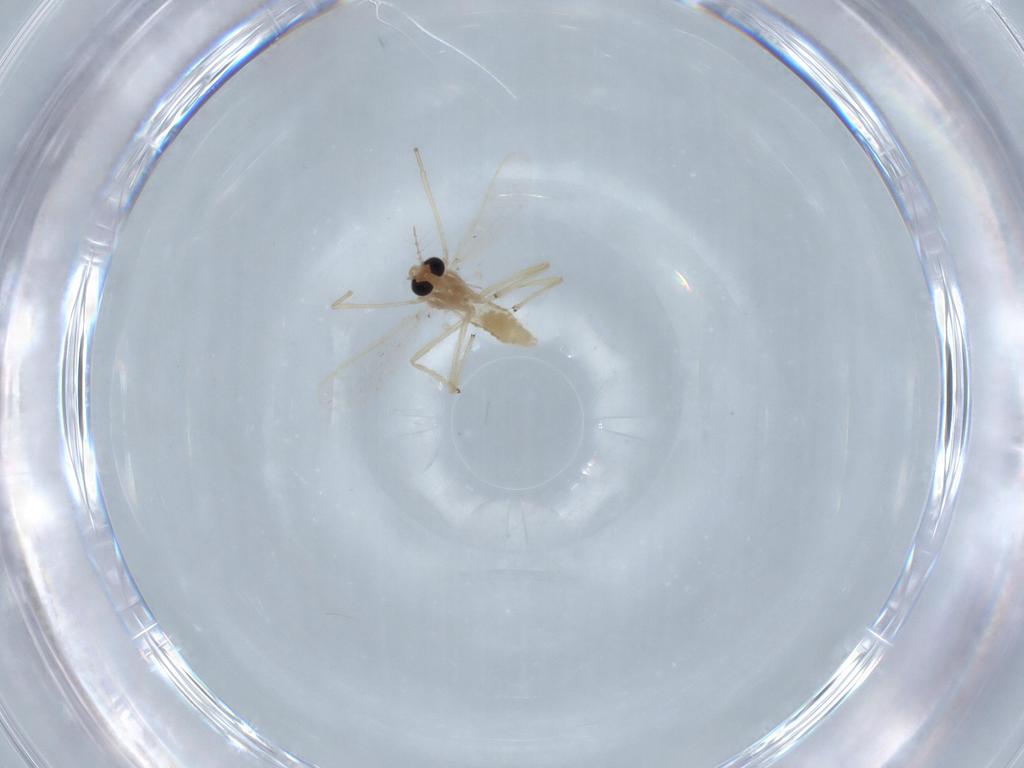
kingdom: Animalia
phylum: Arthropoda
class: Insecta
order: Diptera
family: Chironomidae
